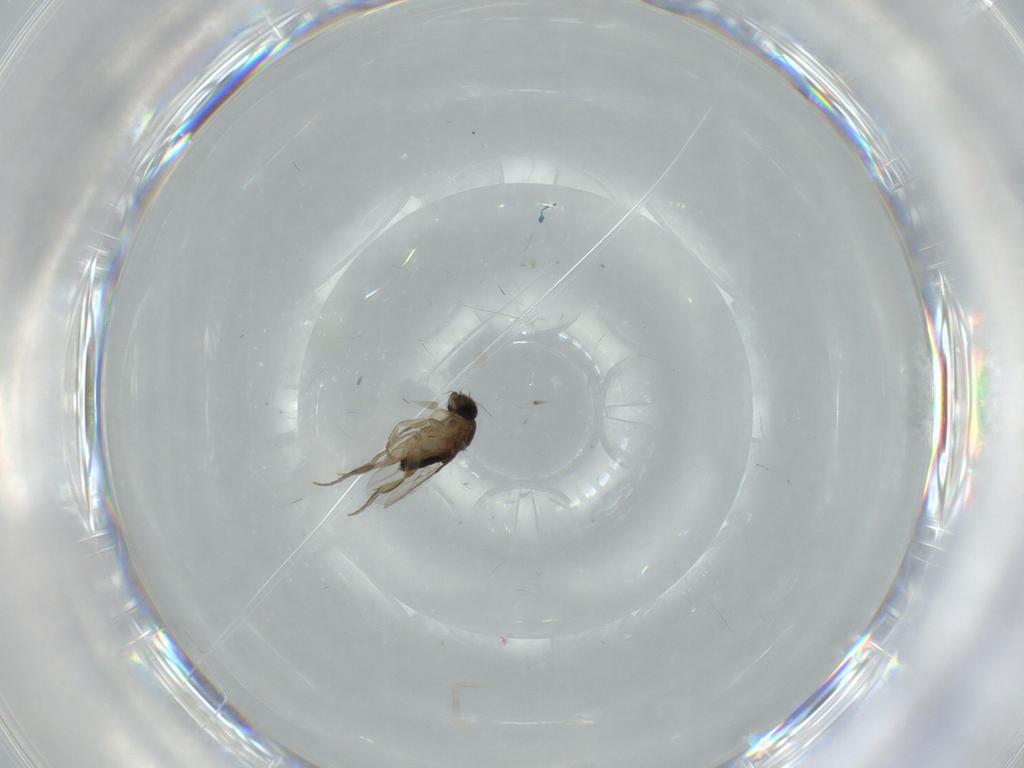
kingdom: Animalia
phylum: Arthropoda
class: Insecta
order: Diptera
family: Phoridae
